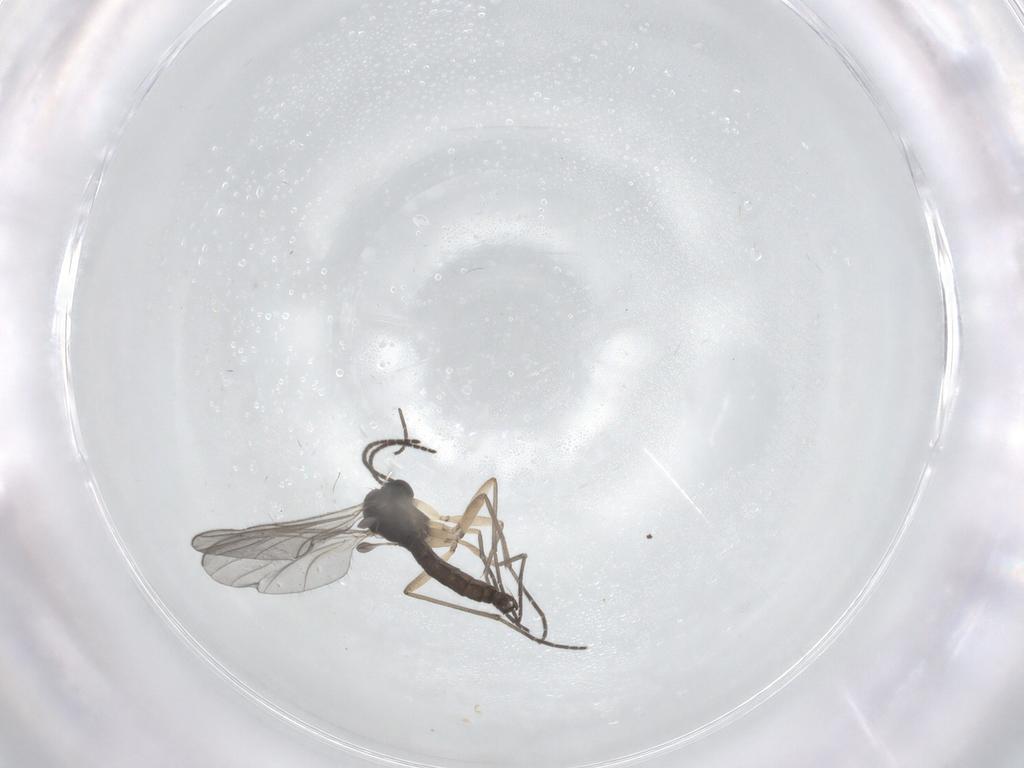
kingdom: Animalia
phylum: Arthropoda
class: Insecta
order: Diptera
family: Sciaridae
